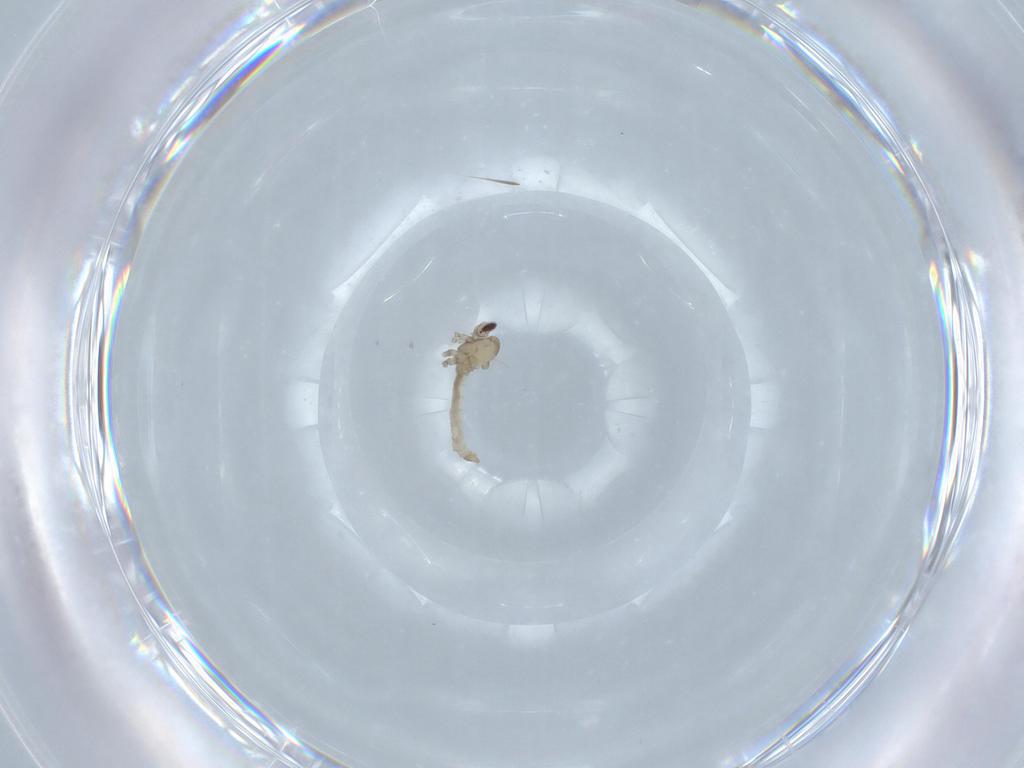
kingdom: Animalia
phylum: Arthropoda
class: Insecta
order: Diptera
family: Cecidomyiidae
